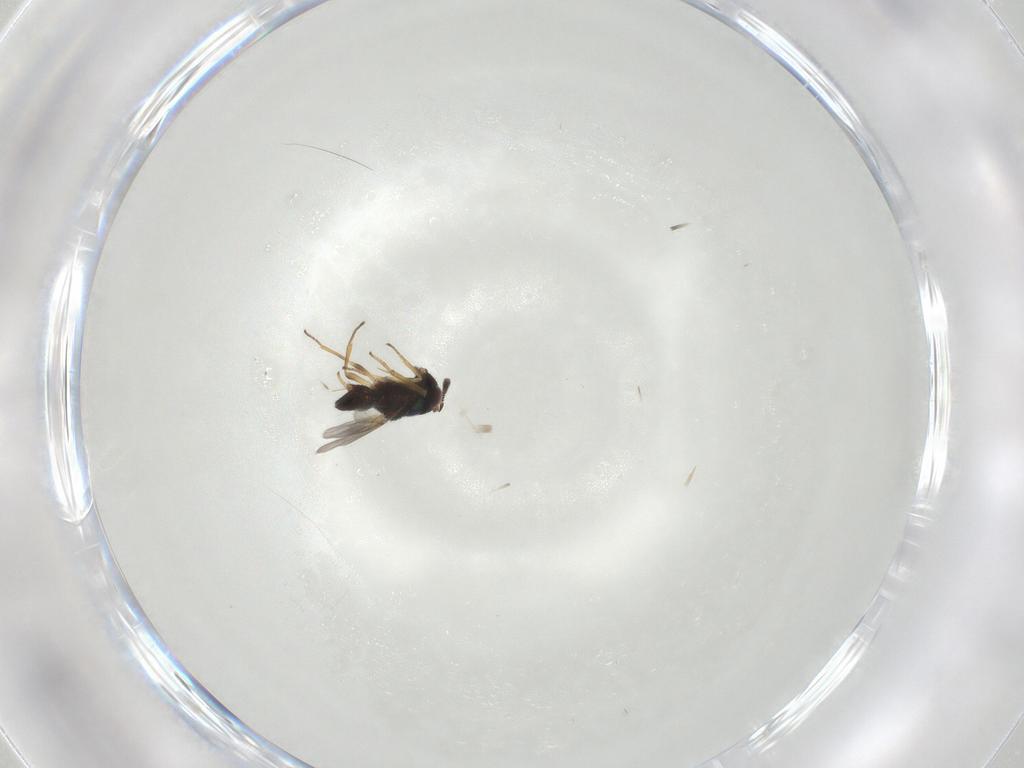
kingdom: Animalia
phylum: Arthropoda
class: Insecta
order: Hymenoptera
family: Encyrtidae
